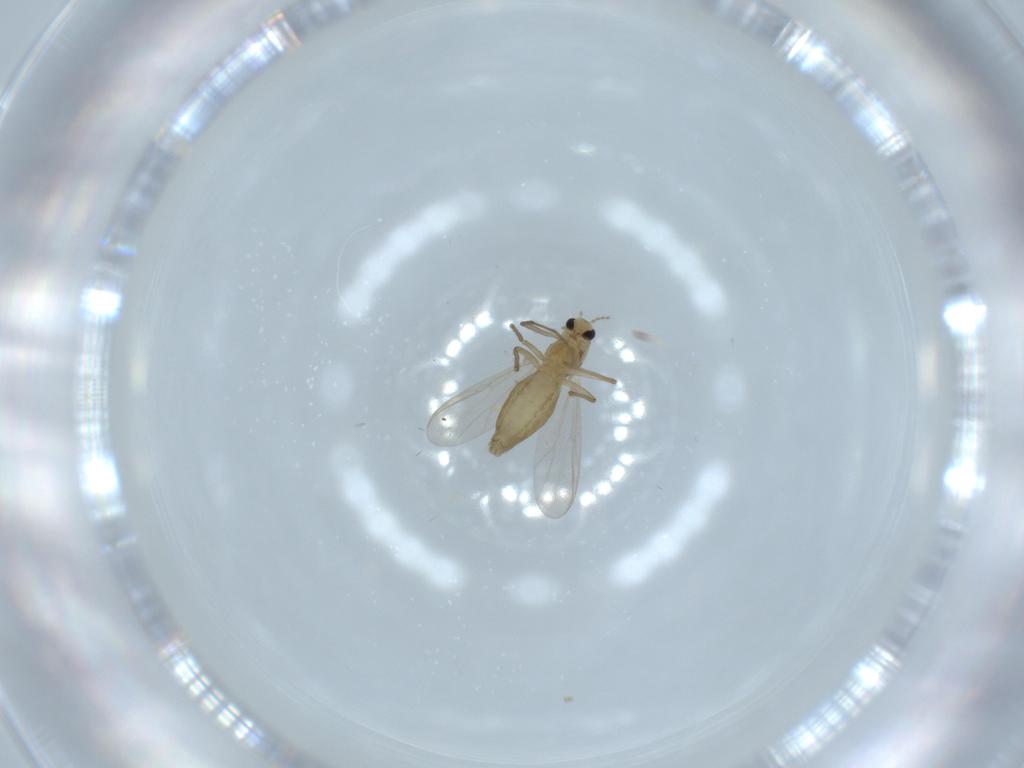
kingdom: Animalia
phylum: Arthropoda
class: Insecta
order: Diptera
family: Chironomidae
